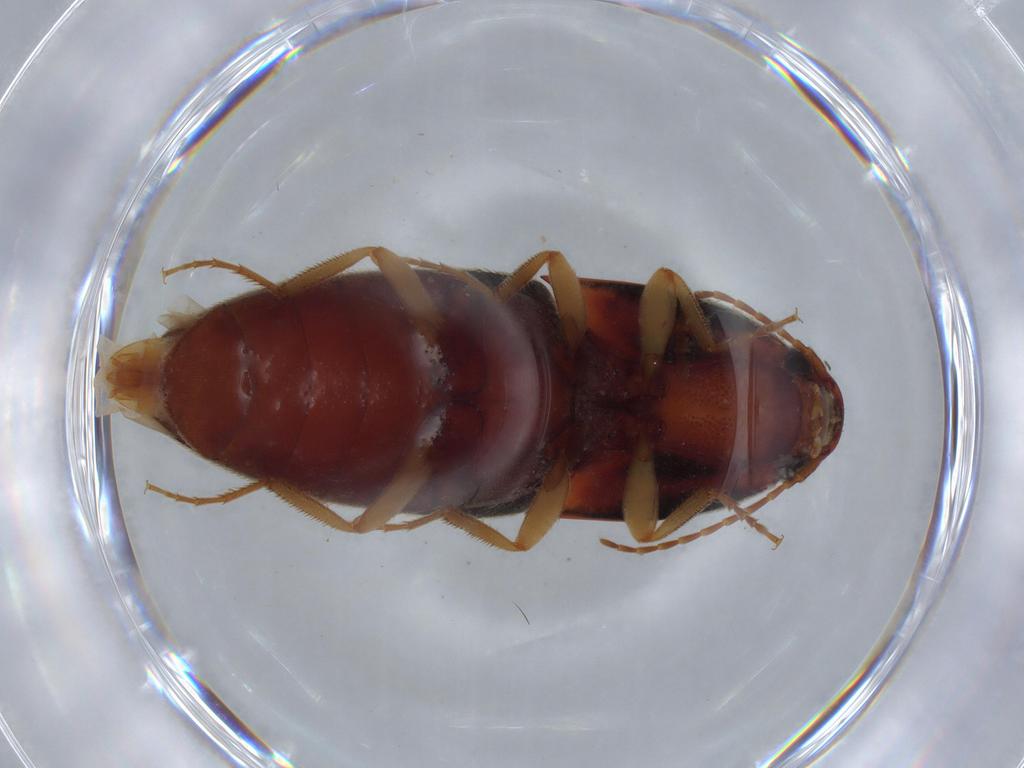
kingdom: Animalia
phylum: Arthropoda
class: Insecta
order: Coleoptera
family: Elateridae
